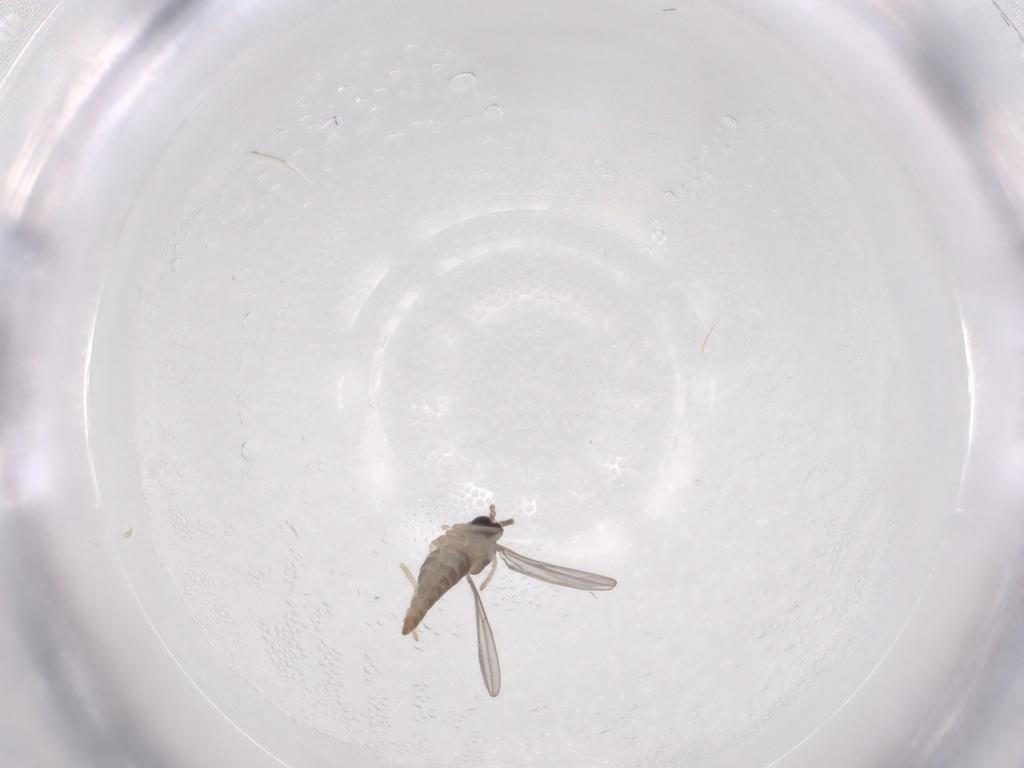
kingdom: Animalia
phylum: Arthropoda
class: Insecta
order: Diptera
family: Cecidomyiidae
